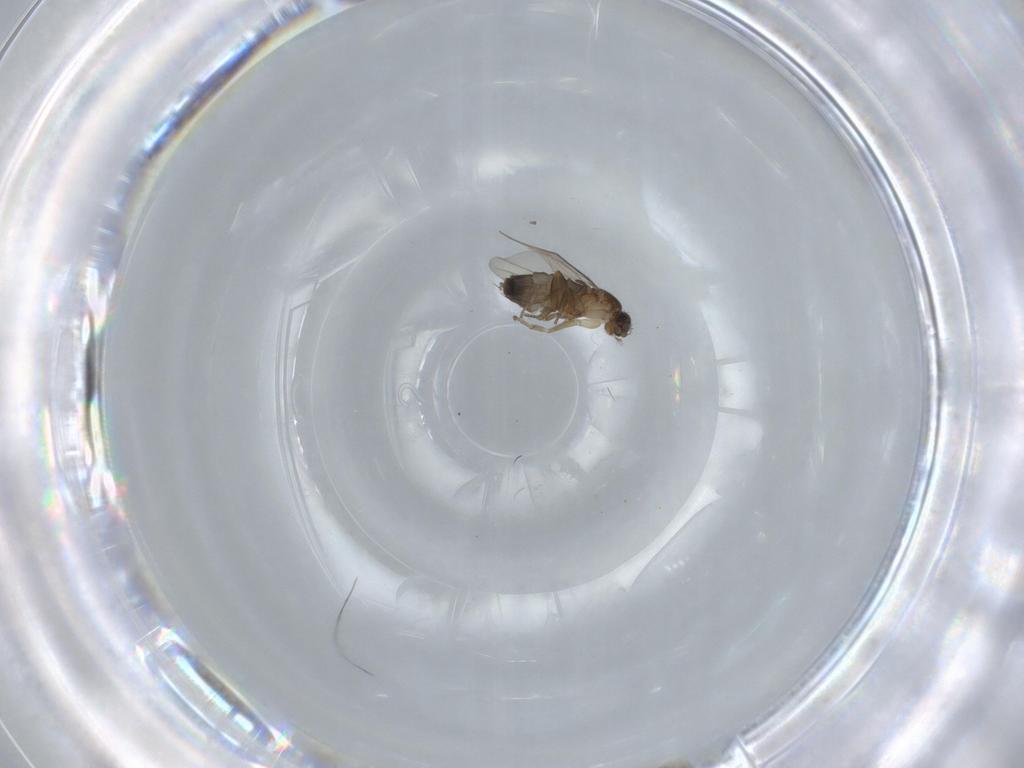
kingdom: Animalia
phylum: Arthropoda
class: Insecta
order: Diptera
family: Phoridae
